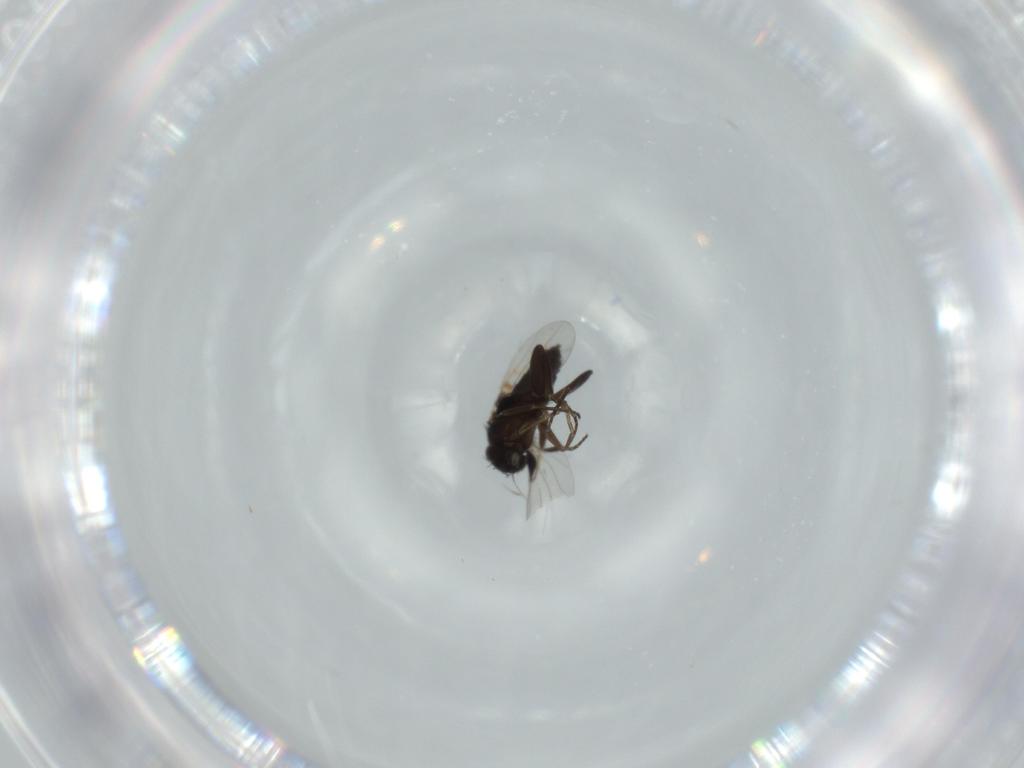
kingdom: Animalia
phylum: Arthropoda
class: Insecta
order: Diptera
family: Phoridae
